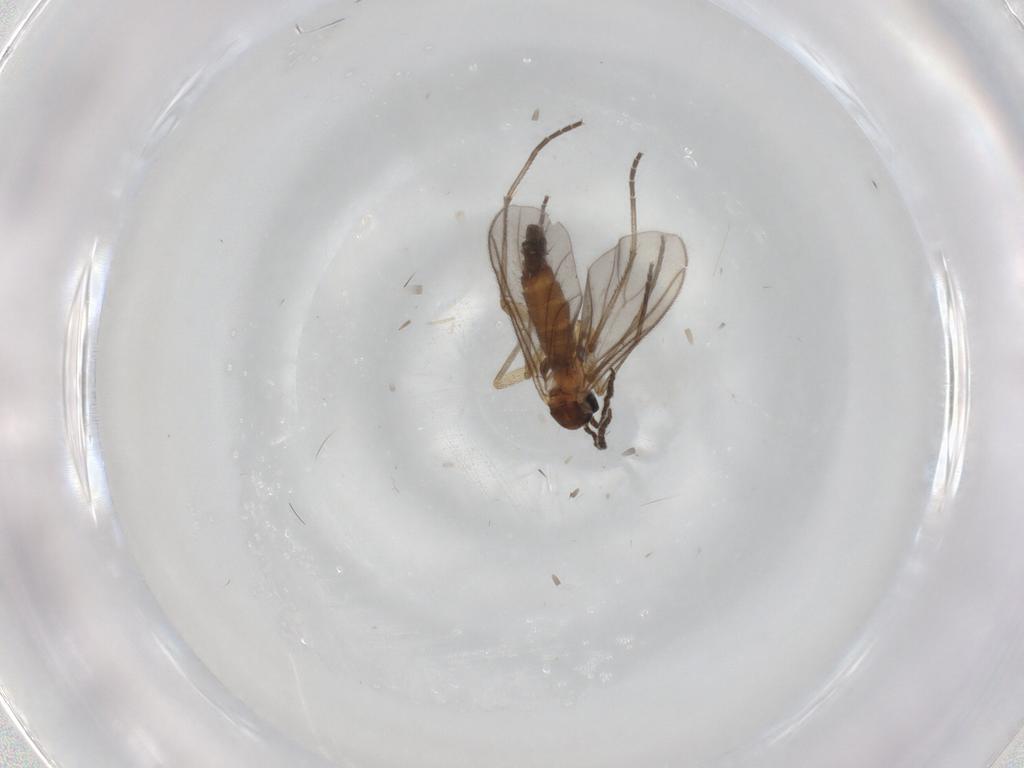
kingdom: Animalia
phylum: Arthropoda
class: Insecta
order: Diptera
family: Sciaridae
